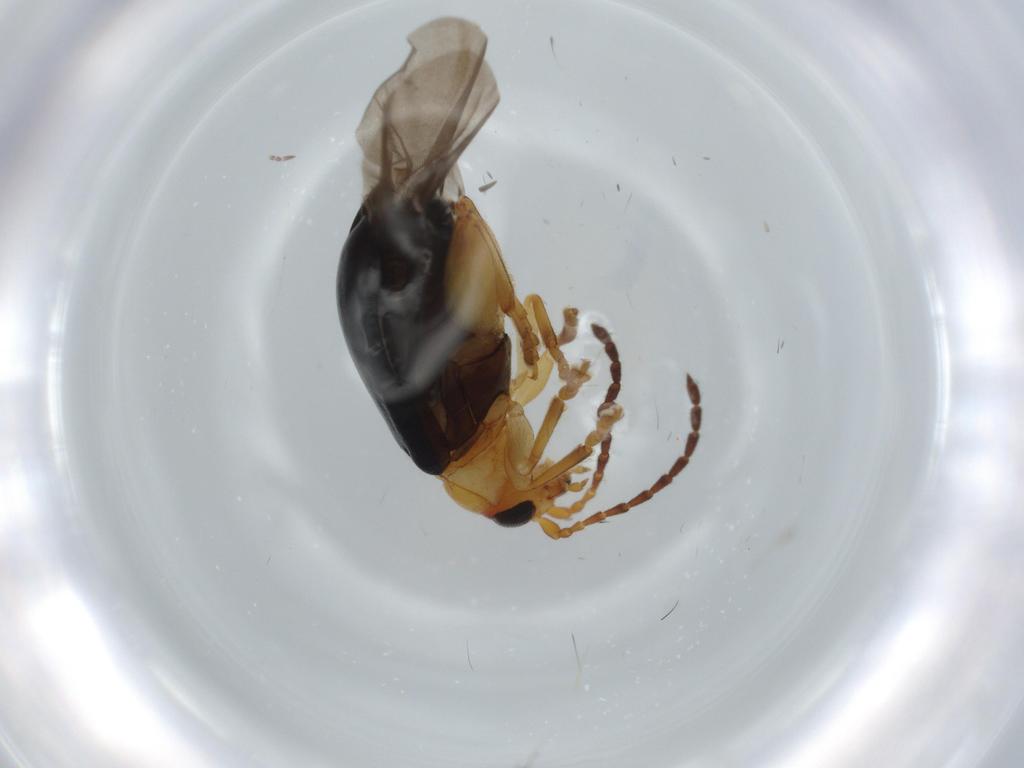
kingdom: Animalia
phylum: Arthropoda
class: Insecta
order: Coleoptera
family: Chrysomelidae
